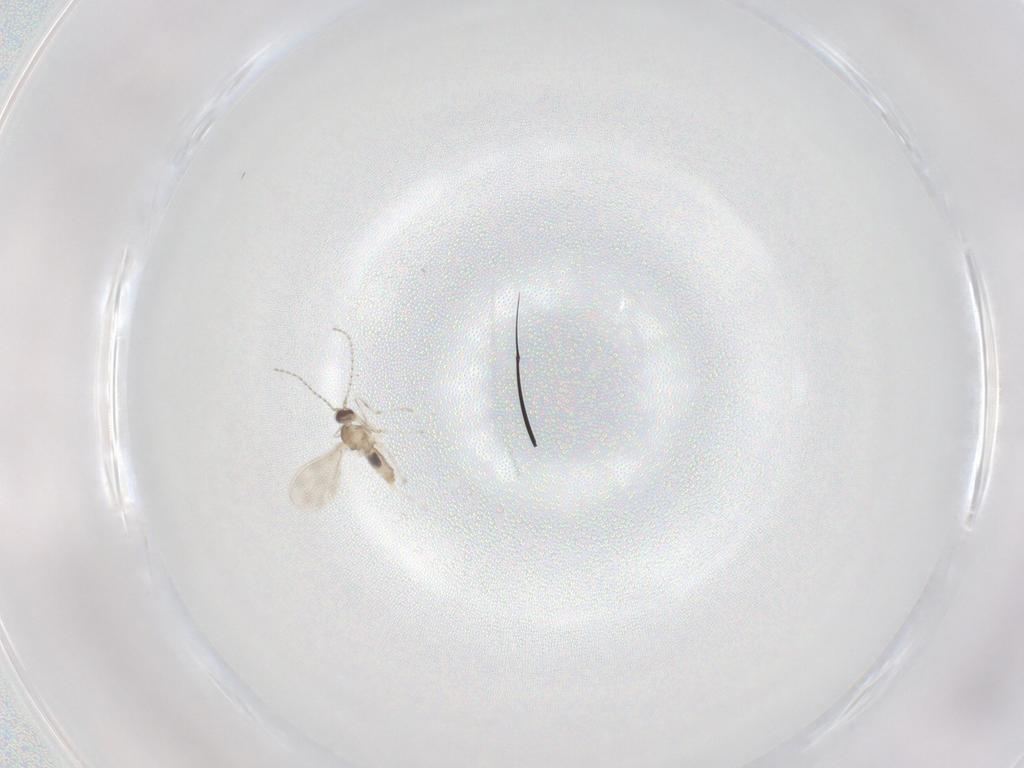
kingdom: Animalia
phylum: Arthropoda
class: Insecta
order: Diptera
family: Cecidomyiidae
